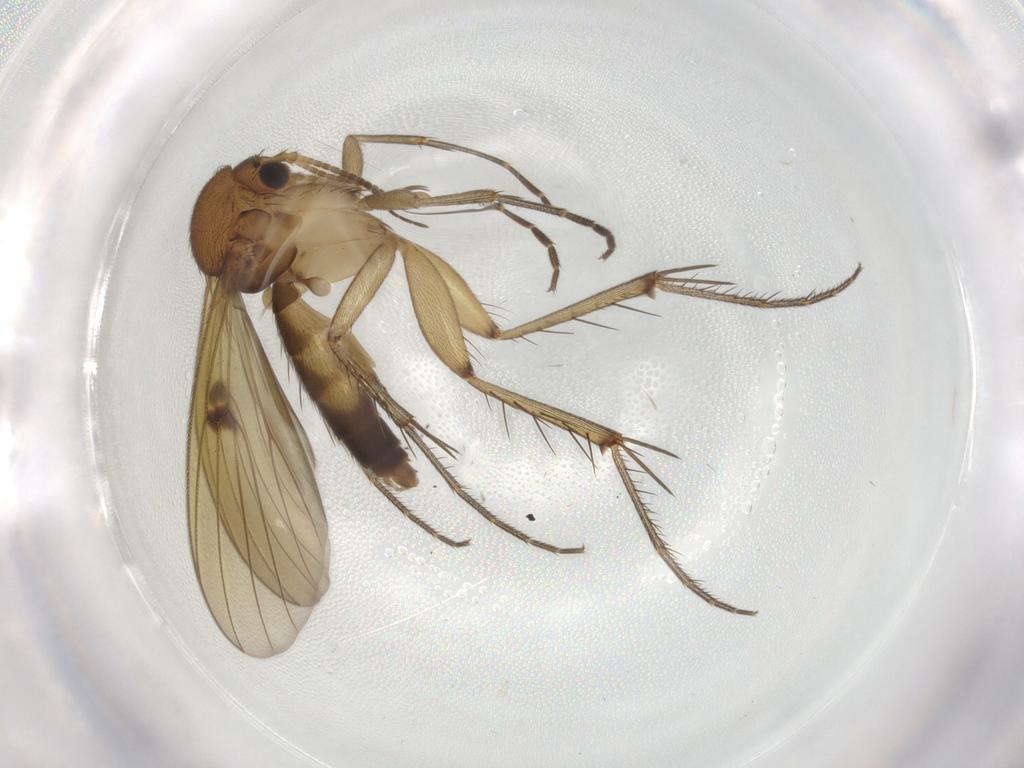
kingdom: Animalia
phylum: Arthropoda
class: Insecta
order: Diptera
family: Mycetophilidae
